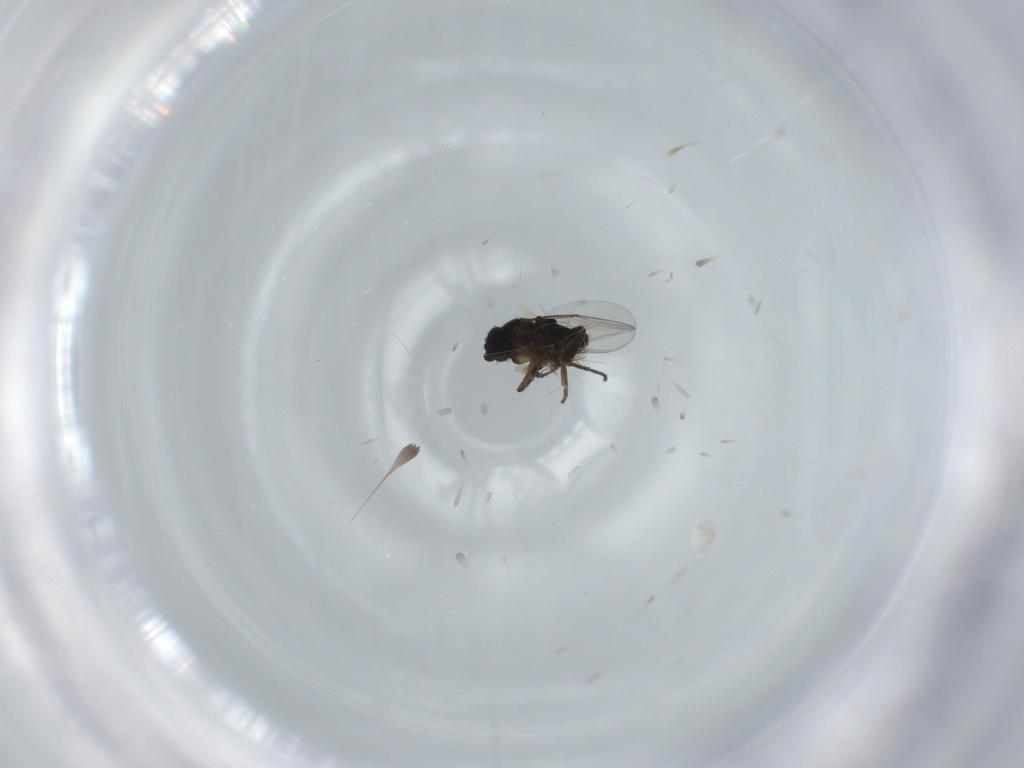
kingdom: Animalia
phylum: Arthropoda
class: Insecta
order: Diptera
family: Phoridae
